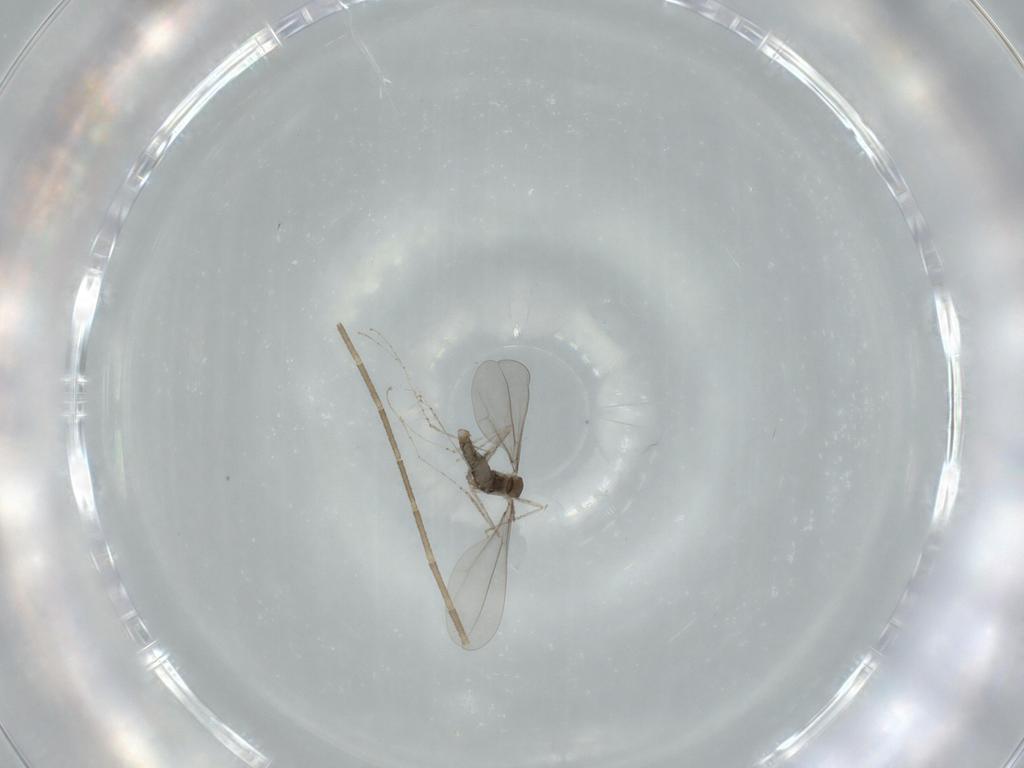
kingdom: Animalia
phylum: Arthropoda
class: Insecta
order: Diptera
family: Cecidomyiidae
